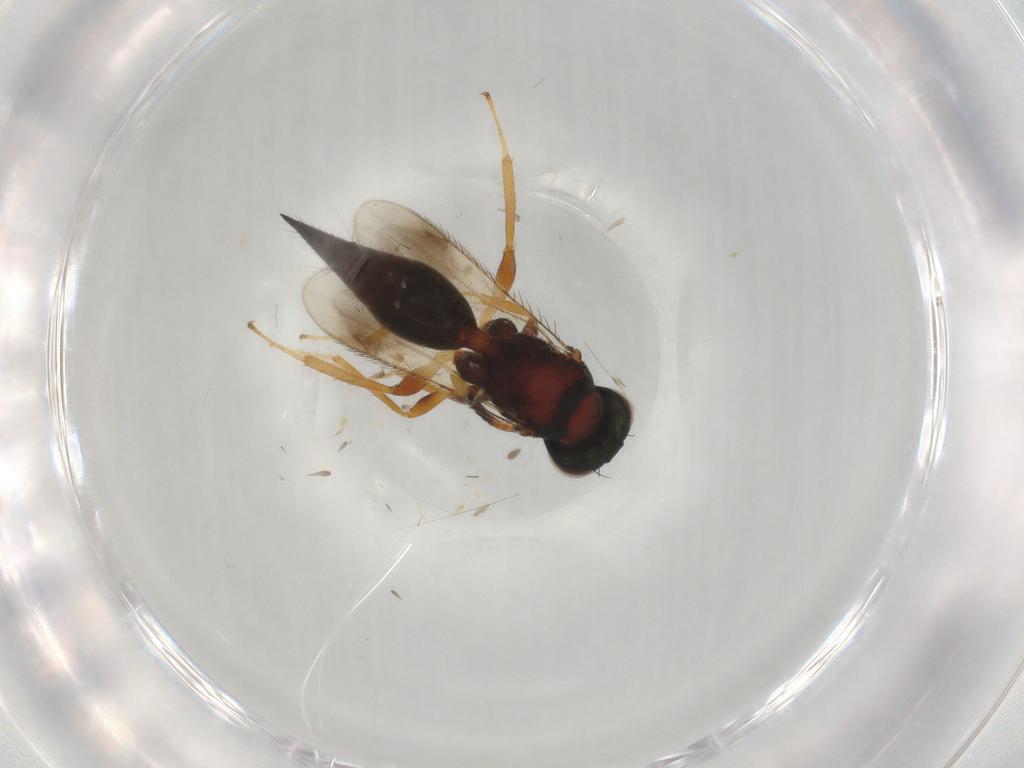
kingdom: Animalia
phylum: Arthropoda
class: Insecta
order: Hymenoptera
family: Pteromalidae
